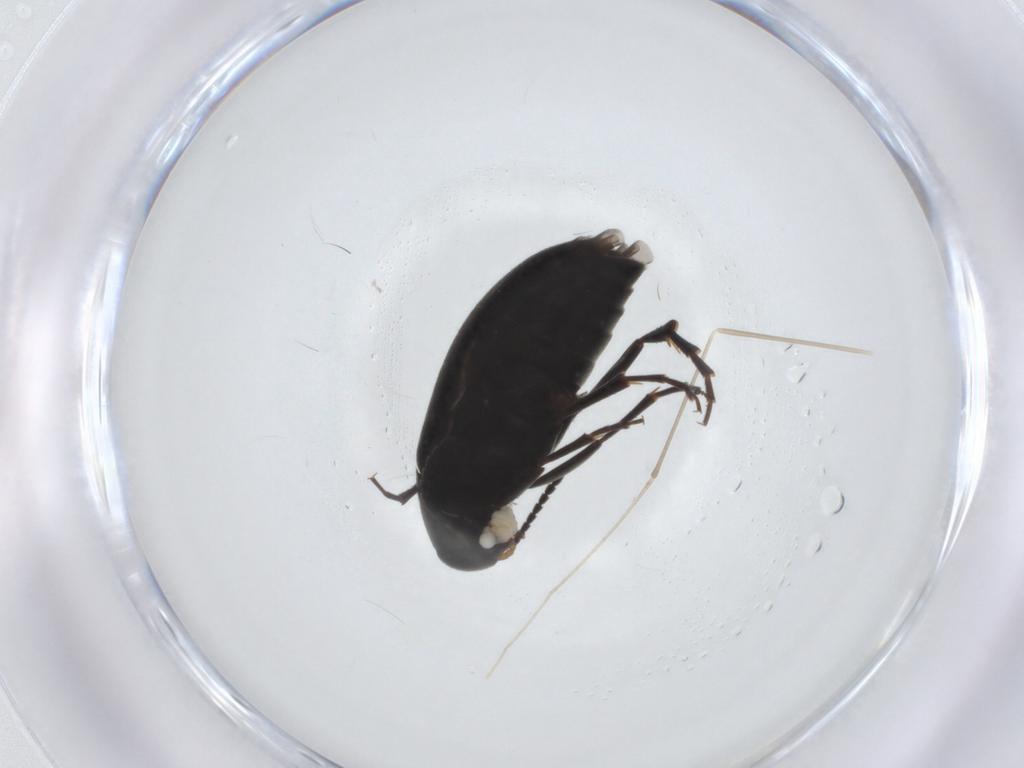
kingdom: Animalia
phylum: Arthropoda
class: Insecta
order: Coleoptera
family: Scraptiidae
